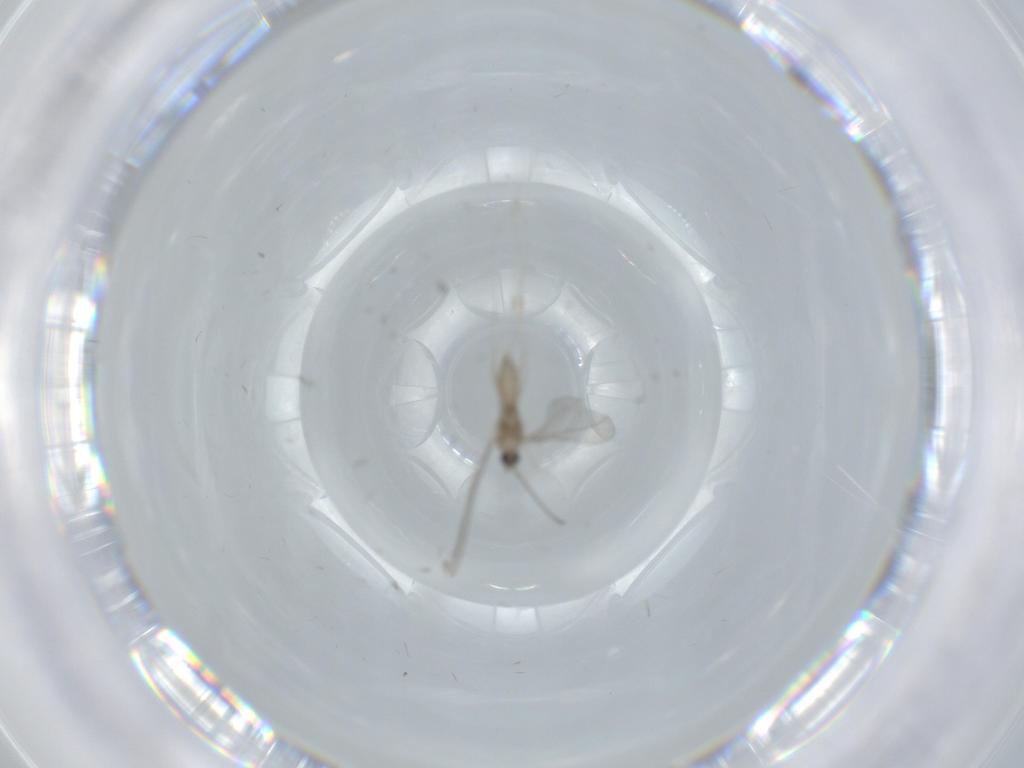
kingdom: Animalia
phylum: Arthropoda
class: Insecta
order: Diptera
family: Cecidomyiidae
